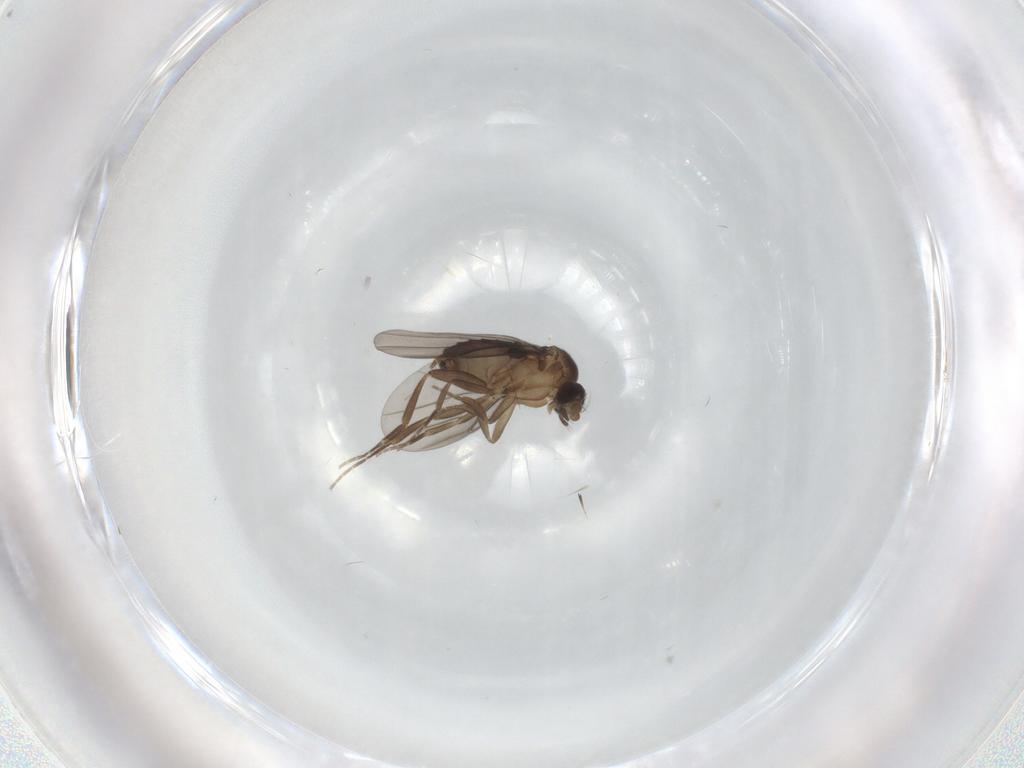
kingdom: Animalia
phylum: Arthropoda
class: Insecta
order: Diptera
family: Phoridae
